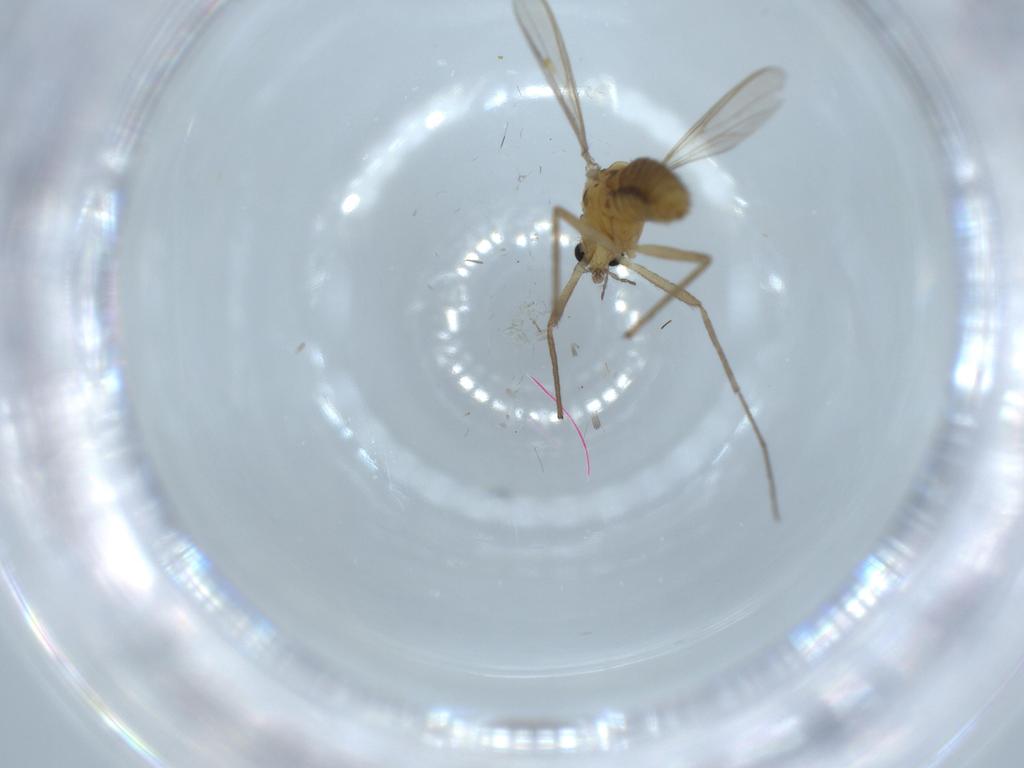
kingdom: Animalia
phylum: Arthropoda
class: Insecta
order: Diptera
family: Chironomidae
